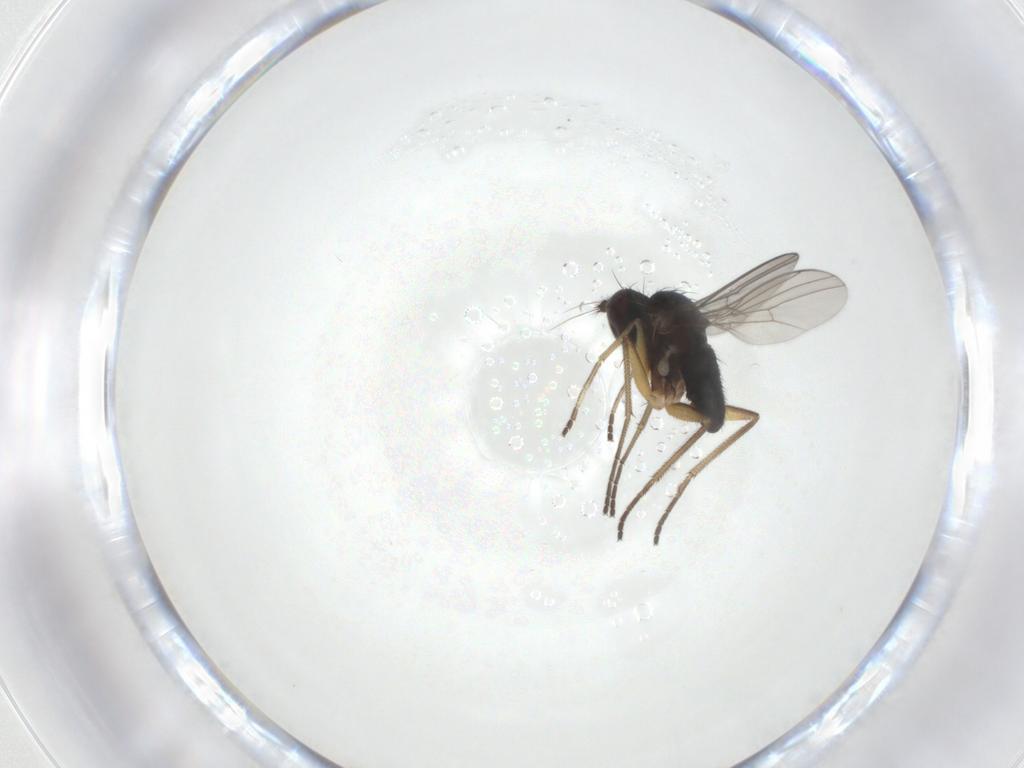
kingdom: Animalia
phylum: Arthropoda
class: Insecta
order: Diptera
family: Dolichopodidae
